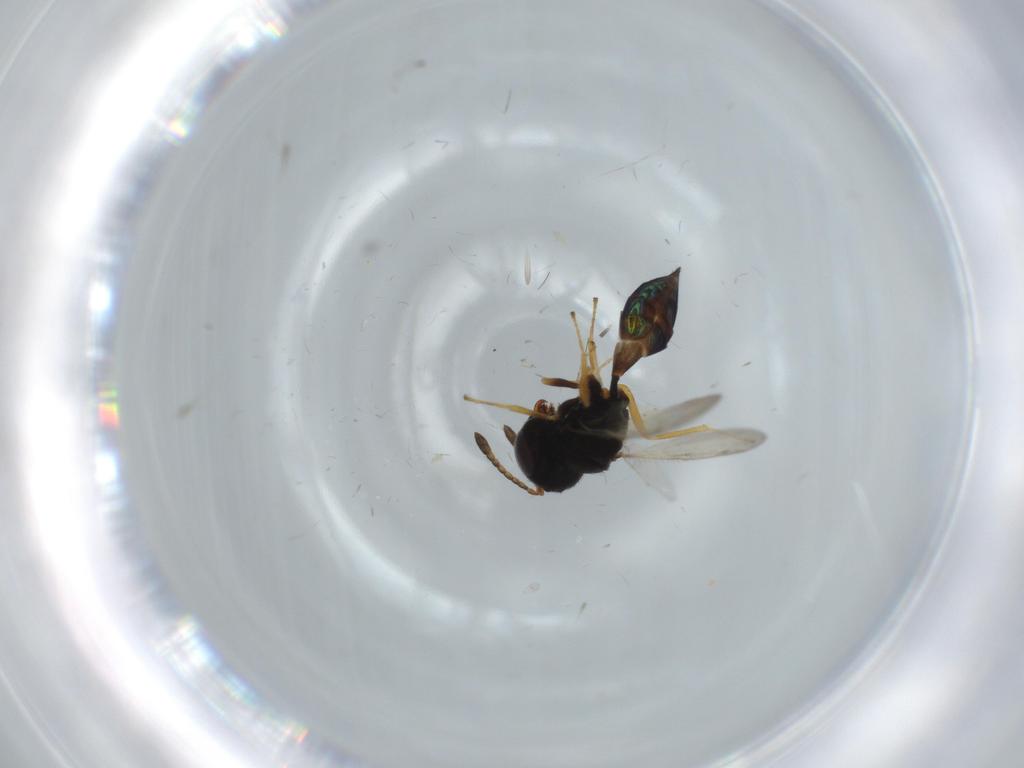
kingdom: Animalia
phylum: Arthropoda
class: Insecta
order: Hymenoptera
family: Pteromalidae
